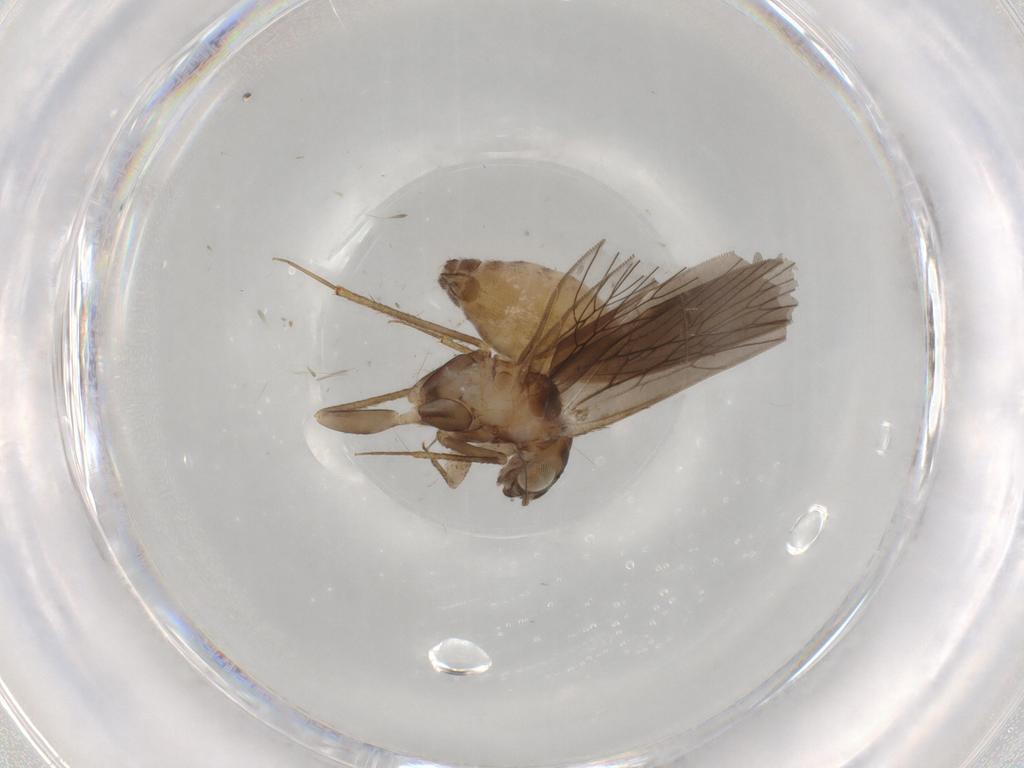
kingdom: Animalia
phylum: Arthropoda
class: Insecta
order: Psocodea
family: Lepidopsocidae
